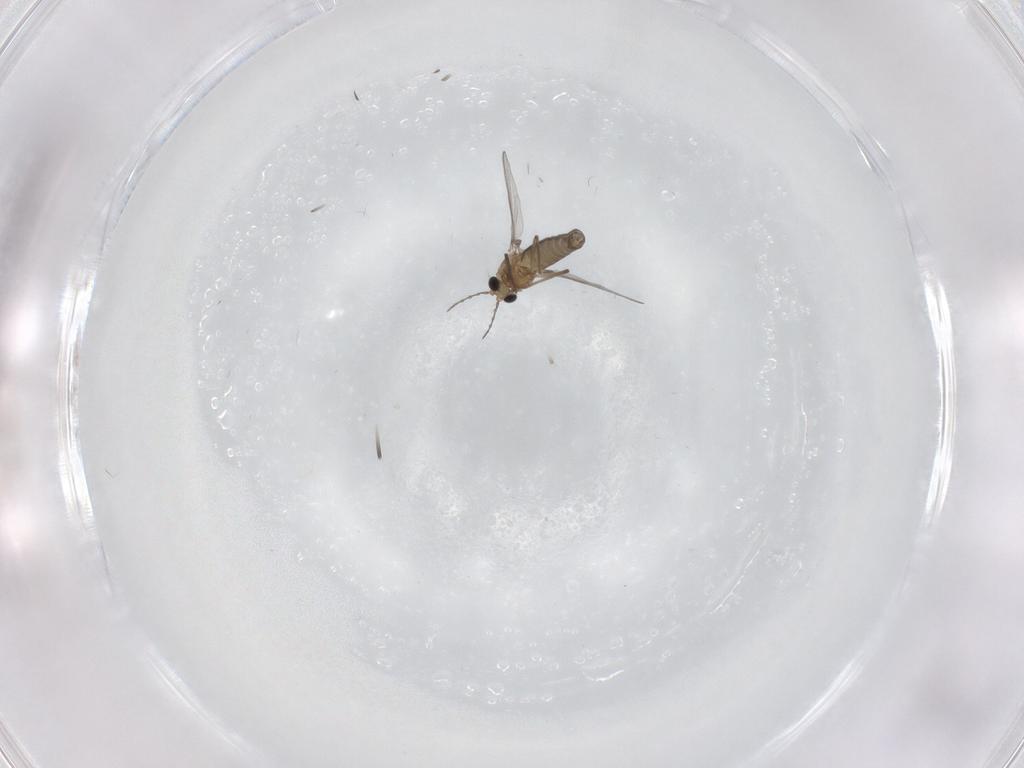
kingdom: Animalia
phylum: Arthropoda
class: Insecta
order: Diptera
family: Chironomidae
